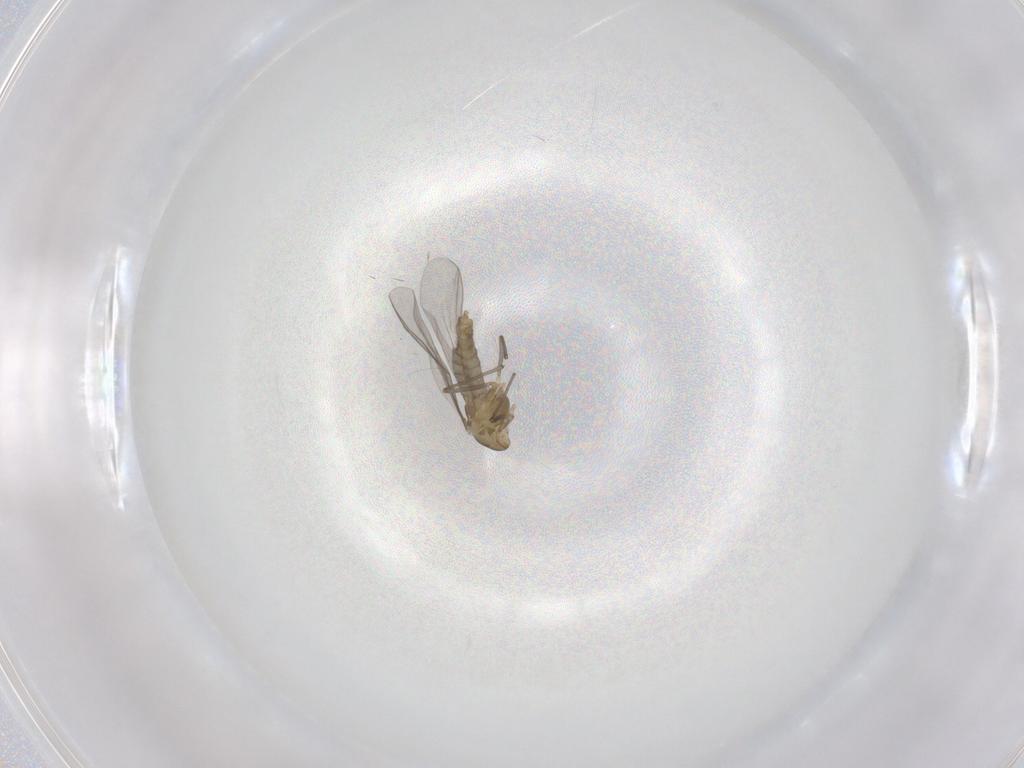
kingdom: Animalia
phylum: Arthropoda
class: Insecta
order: Diptera
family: Chironomidae
